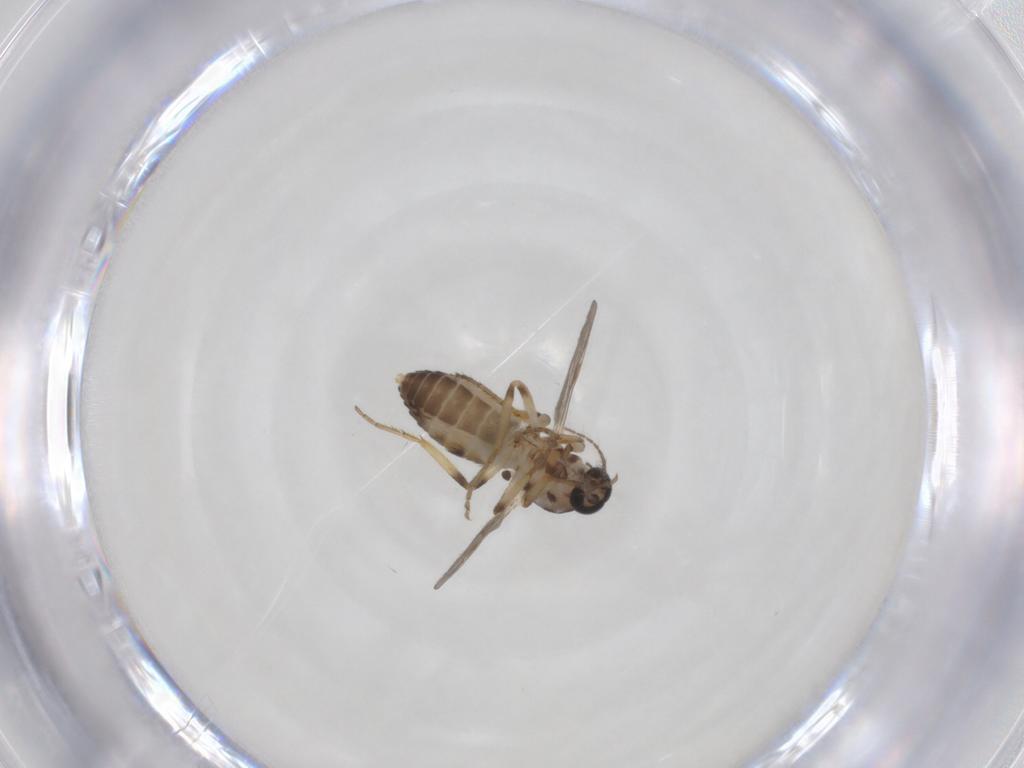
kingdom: Animalia
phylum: Arthropoda
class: Insecta
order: Diptera
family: Ceratopogonidae
